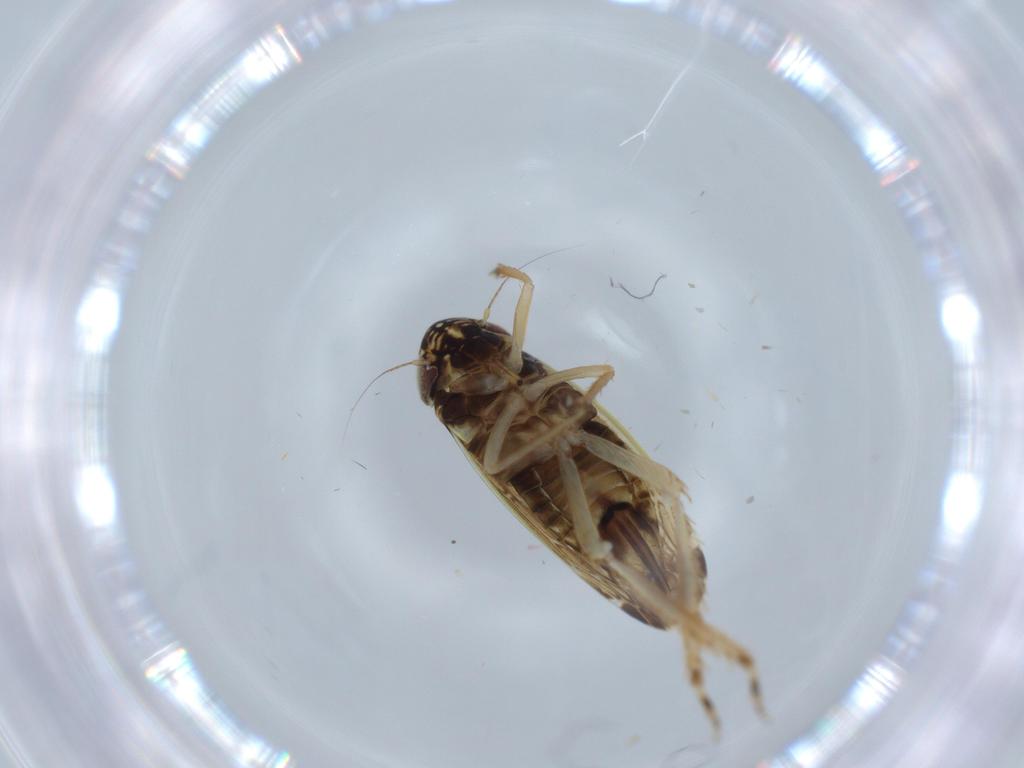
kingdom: Animalia
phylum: Arthropoda
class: Insecta
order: Hemiptera
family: Cicadellidae
